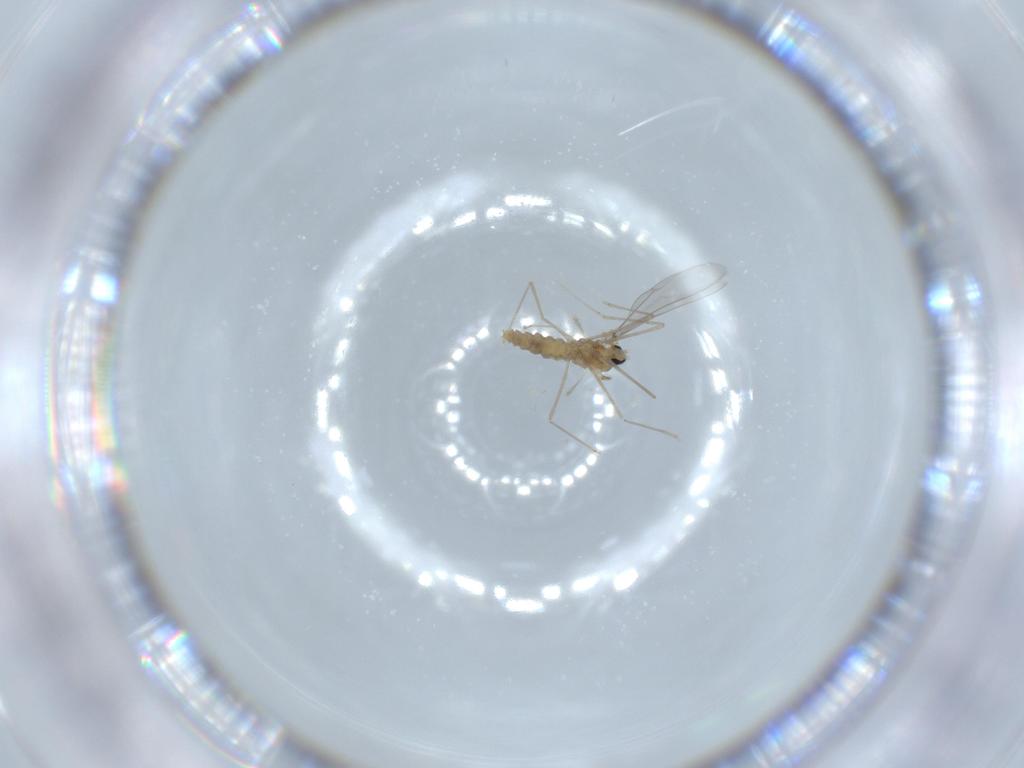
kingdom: Animalia
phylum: Arthropoda
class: Insecta
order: Diptera
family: Cecidomyiidae
